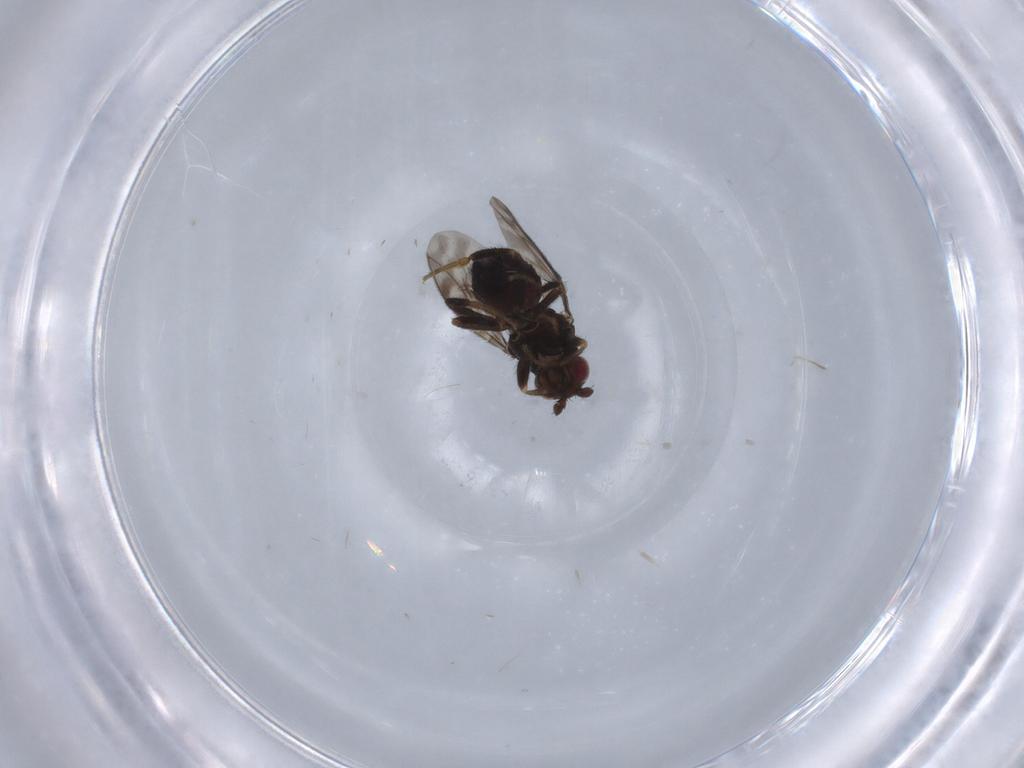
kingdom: Animalia
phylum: Arthropoda
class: Insecta
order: Diptera
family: Sphaeroceridae
